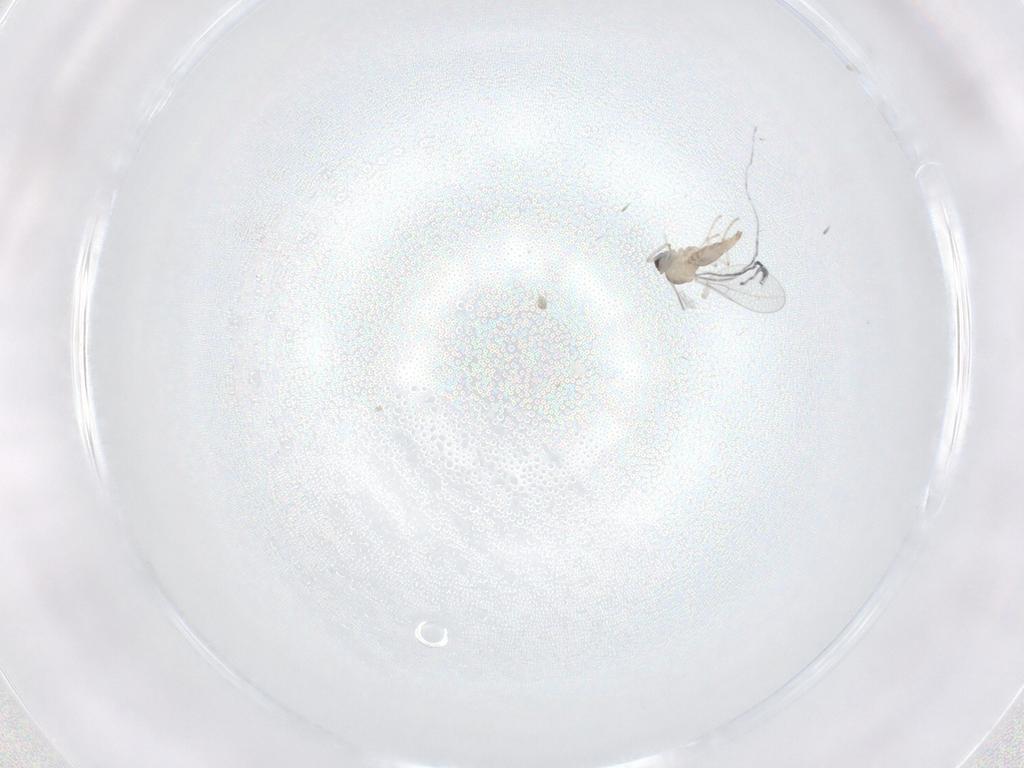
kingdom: Animalia
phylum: Arthropoda
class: Insecta
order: Diptera
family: Cecidomyiidae
